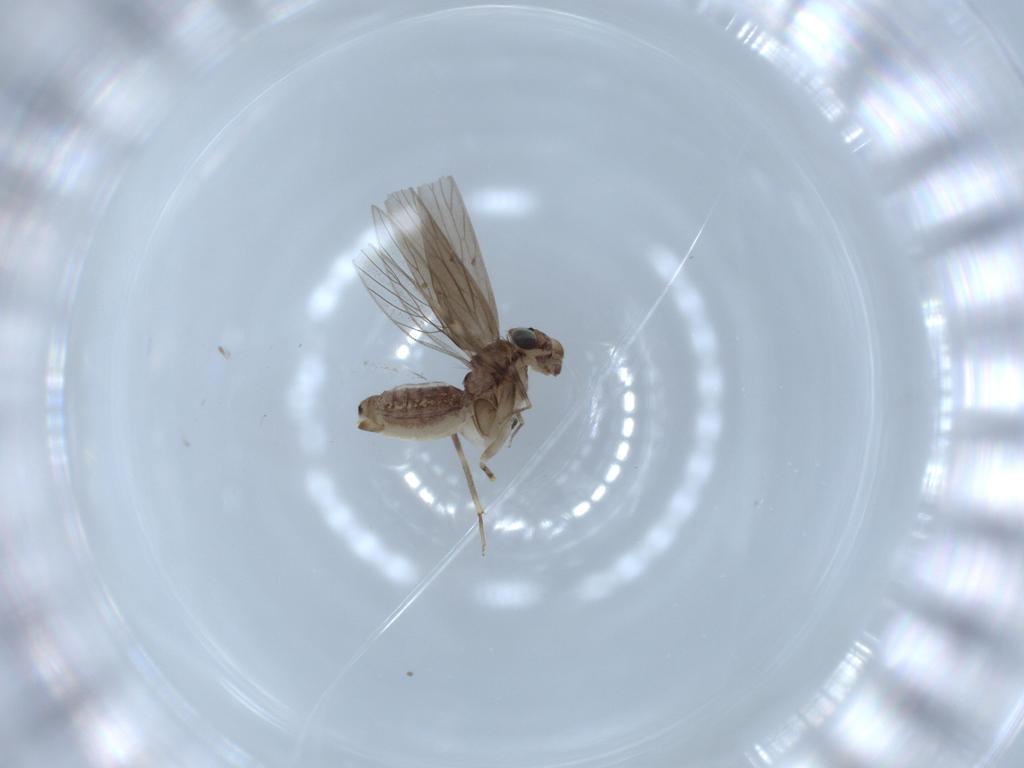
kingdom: Animalia
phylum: Arthropoda
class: Insecta
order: Psocodea
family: Lepidopsocidae
